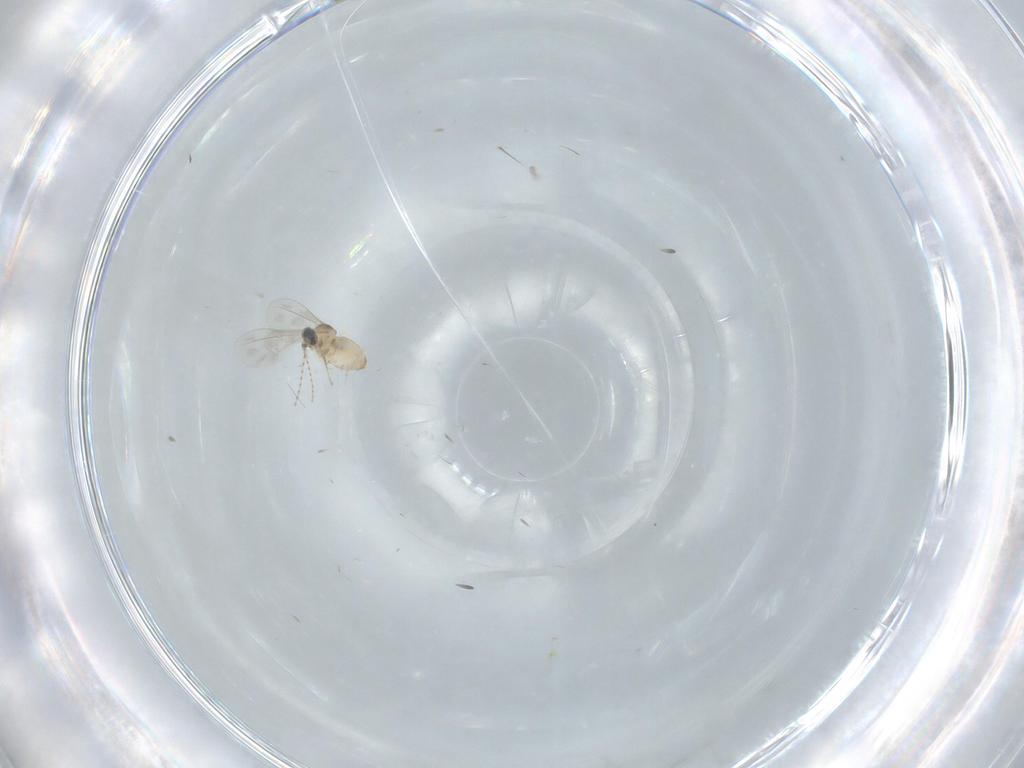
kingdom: Animalia
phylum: Arthropoda
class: Insecta
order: Diptera
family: Cecidomyiidae
